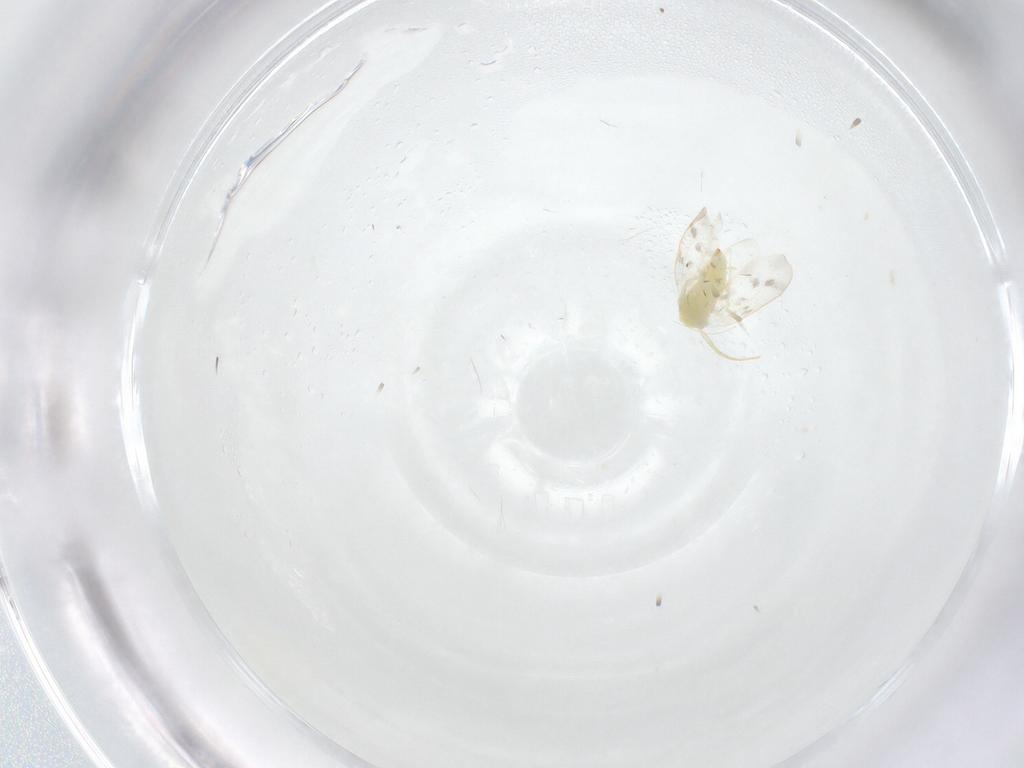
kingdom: Animalia
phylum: Arthropoda
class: Insecta
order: Hemiptera
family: Aleyrodidae
